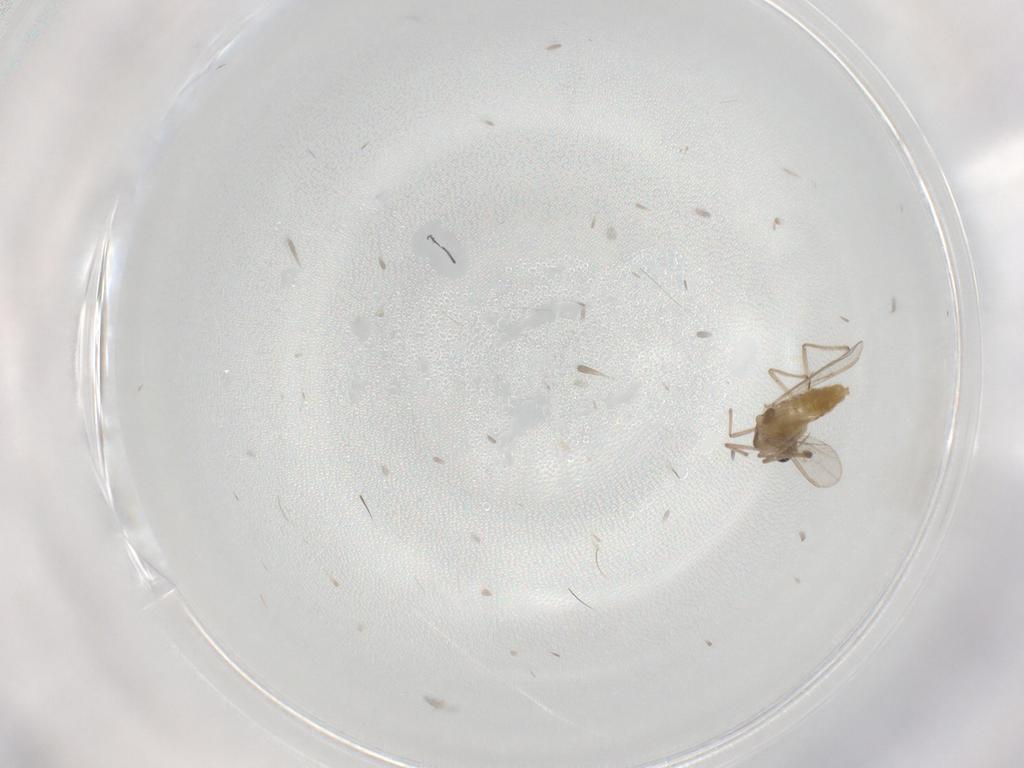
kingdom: Animalia
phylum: Arthropoda
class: Insecta
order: Diptera
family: Chironomidae
